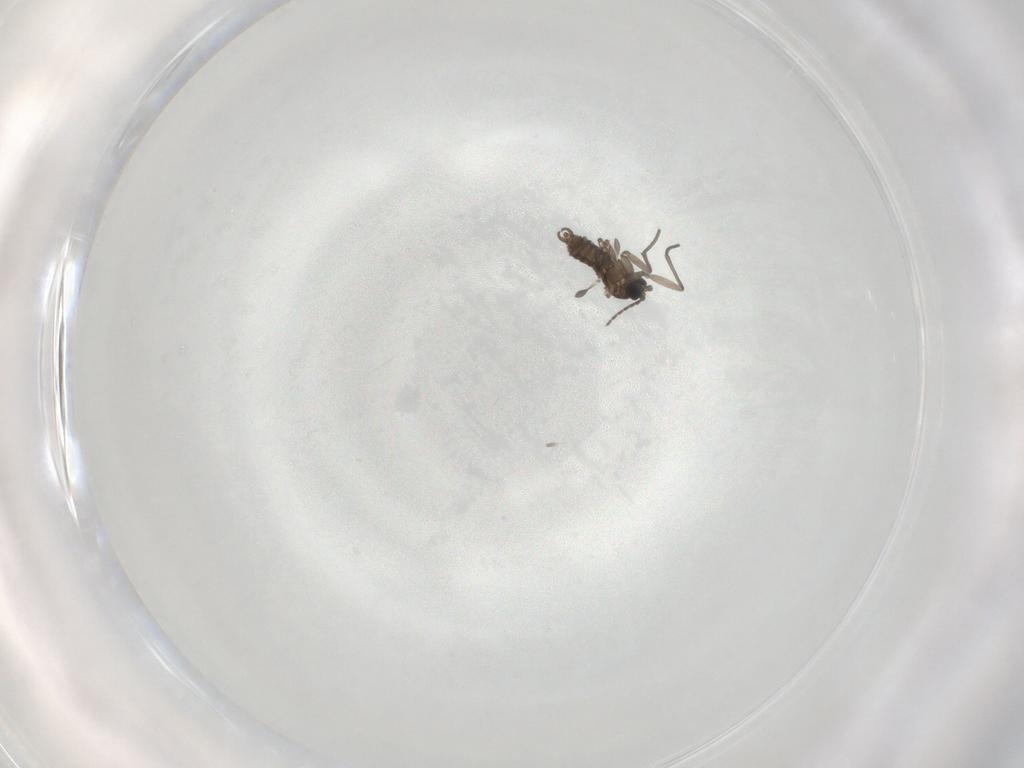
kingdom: Animalia
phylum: Arthropoda
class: Insecta
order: Diptera
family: Sciaridae
